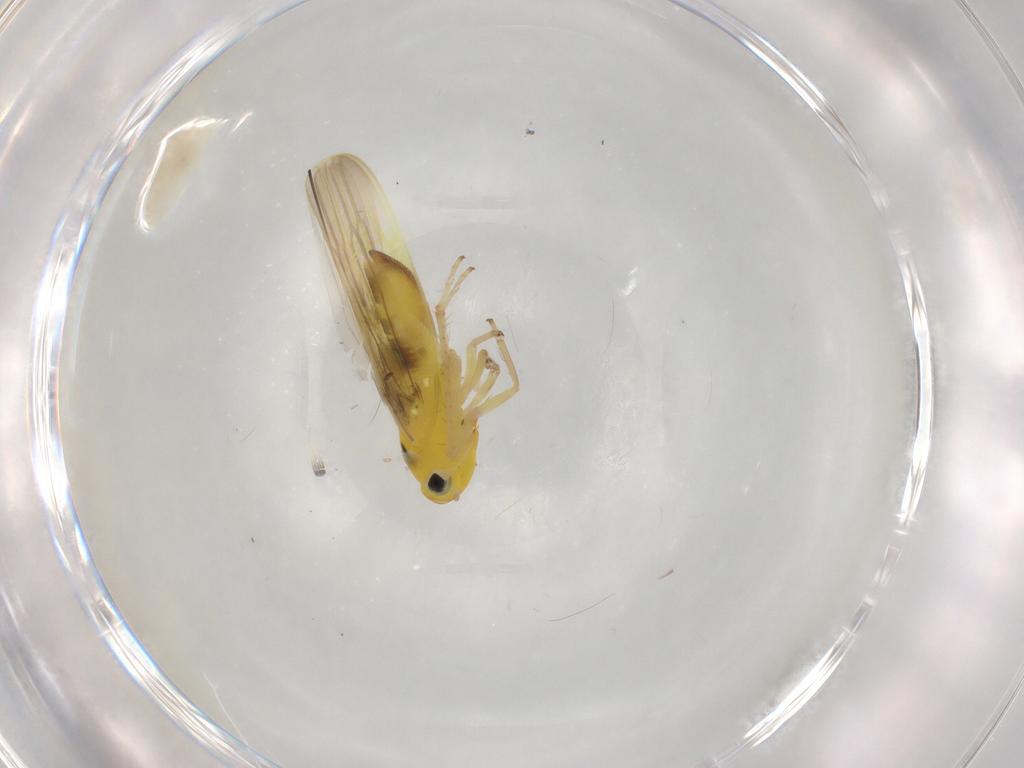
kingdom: Animalia
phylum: Arthropoda
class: Insecta
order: Hemiptera
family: Cicadellidae
